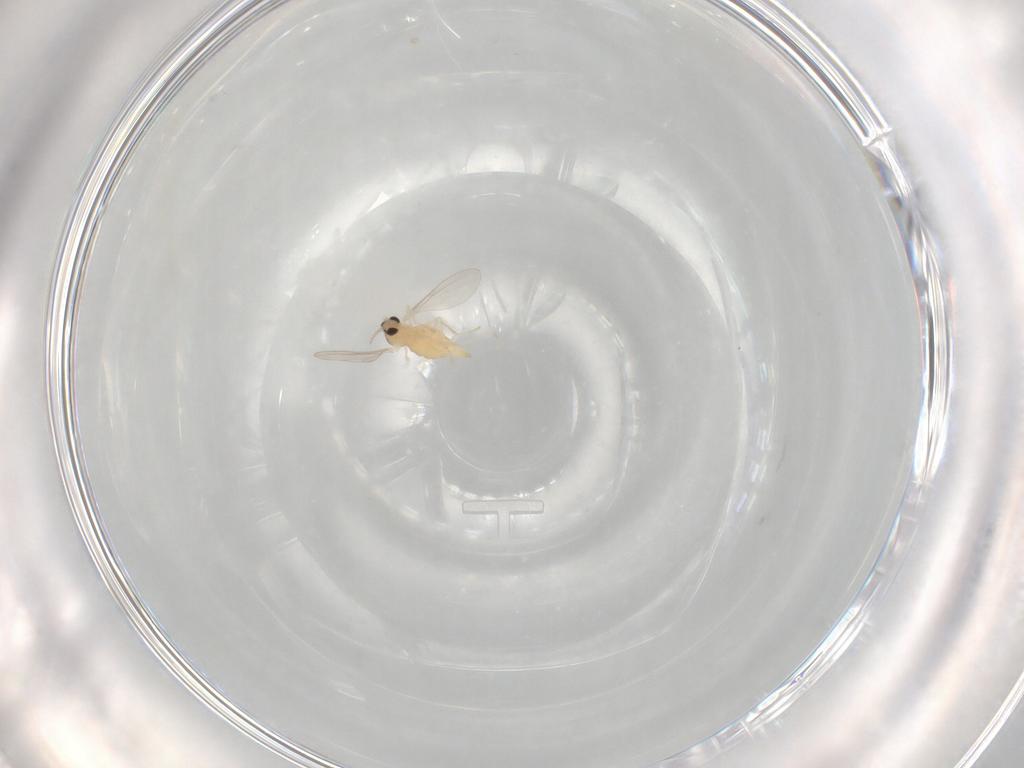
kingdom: Animalia
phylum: Arthropoda
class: Insecta
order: Diptera
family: Cecidomyiidae
